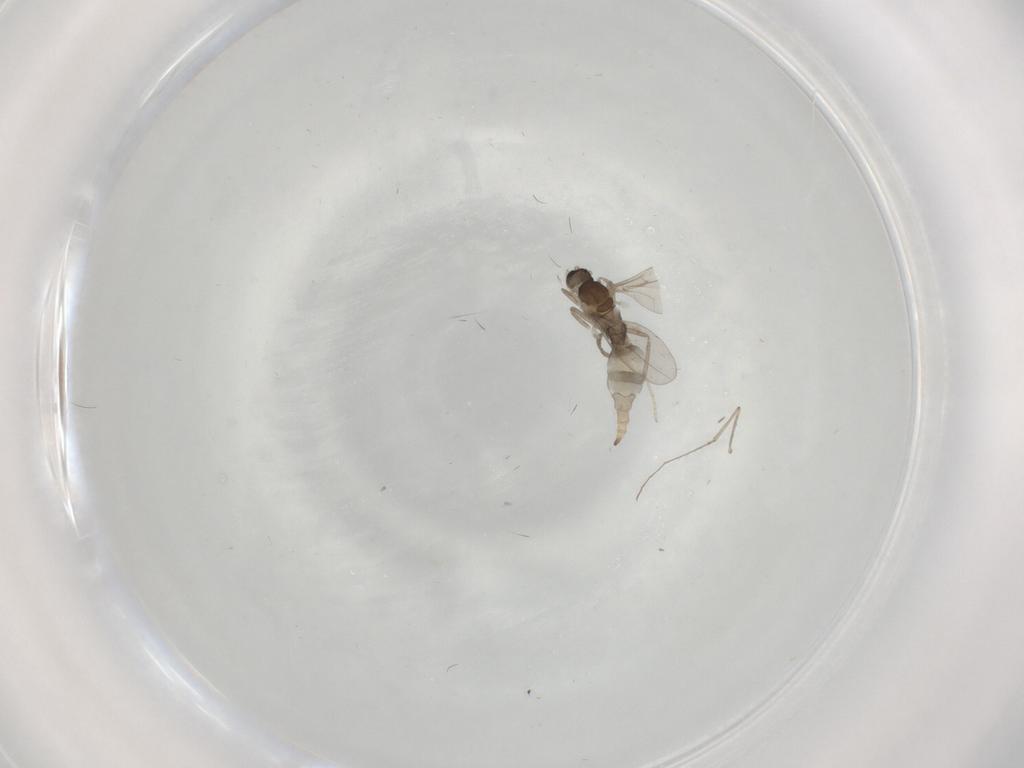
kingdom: Animalia
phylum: Arthropoda
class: Insecta
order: Diptera
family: Cecidomyiidae
